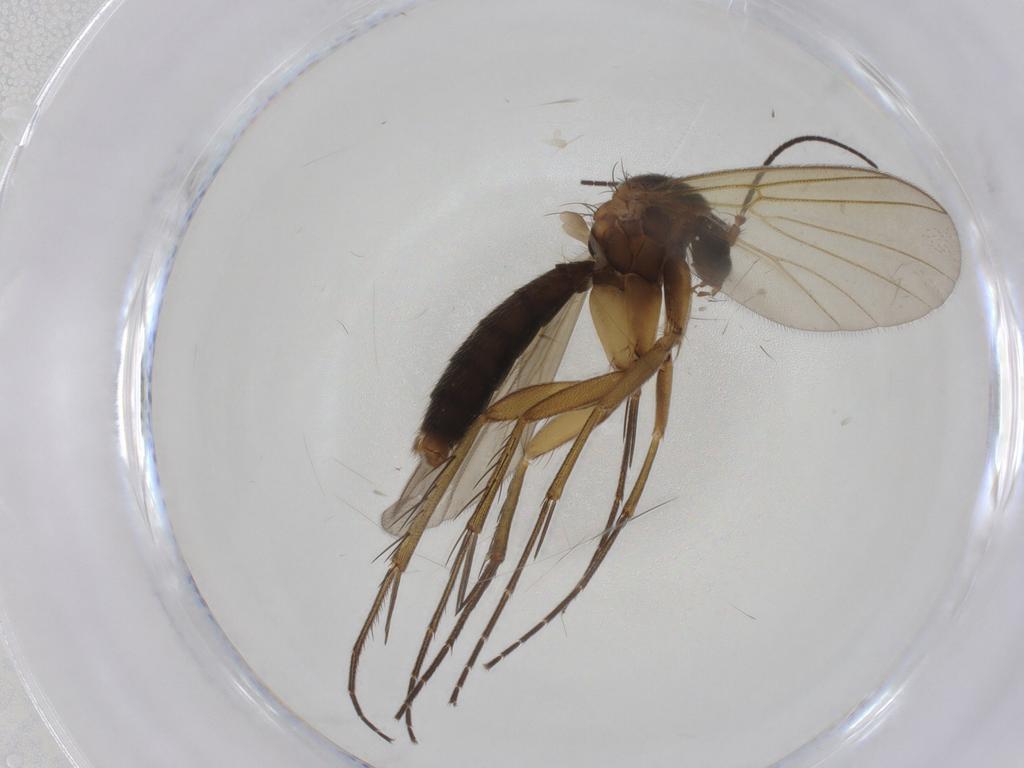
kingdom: Animalia
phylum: Arthropoda
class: Insecta
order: Diptera
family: Mycetophilidae
